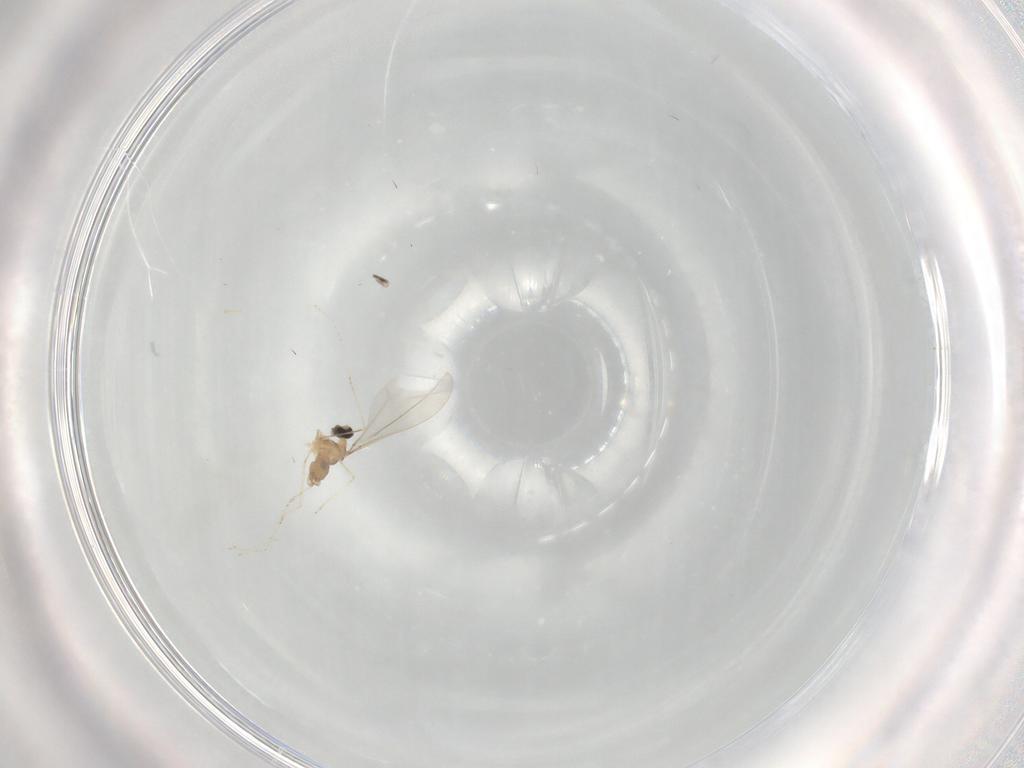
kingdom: Animalia
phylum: Arthropoda
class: Insecta
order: Diptera
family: Cecidomyiidae
